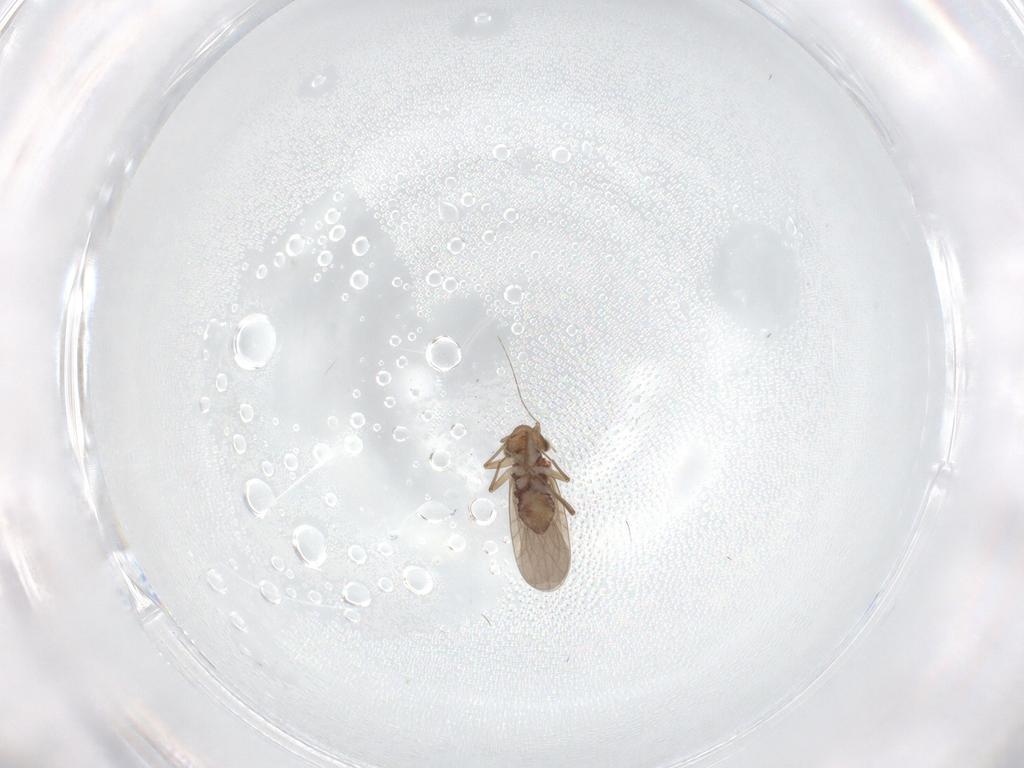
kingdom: Animalia
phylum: Arthropoda
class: Insecta
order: Psocodea
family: Lepidopsocidae
